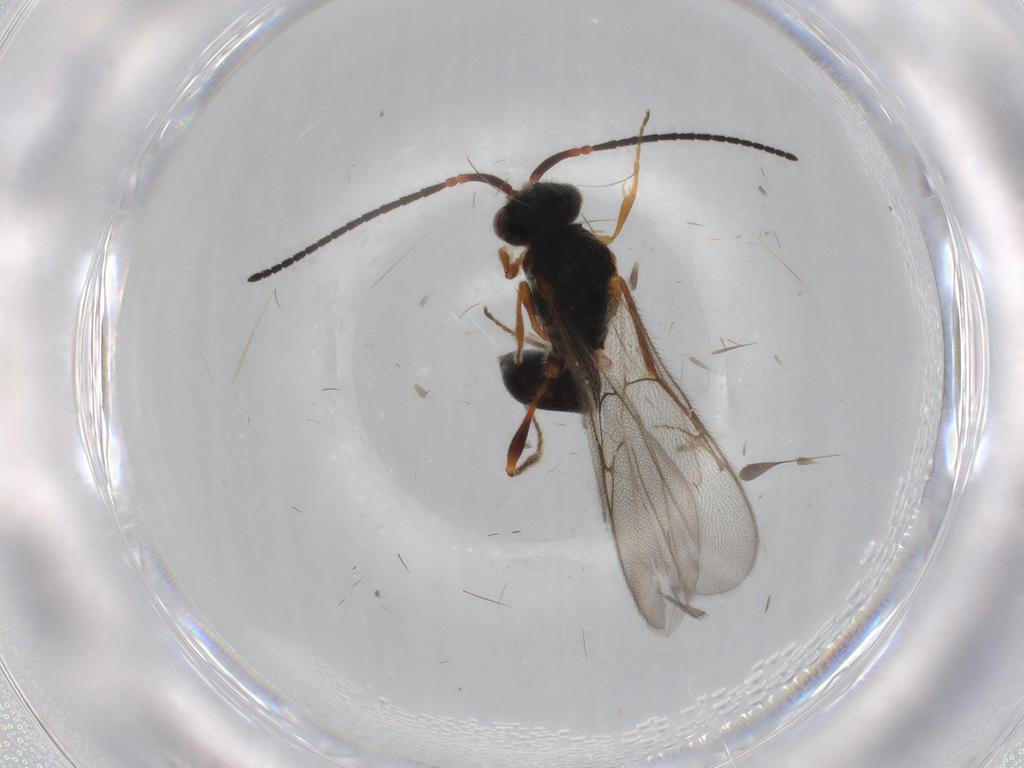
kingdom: Animalia
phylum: Arthropoda
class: Insecta
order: Hymenoptera
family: Diapriidae
